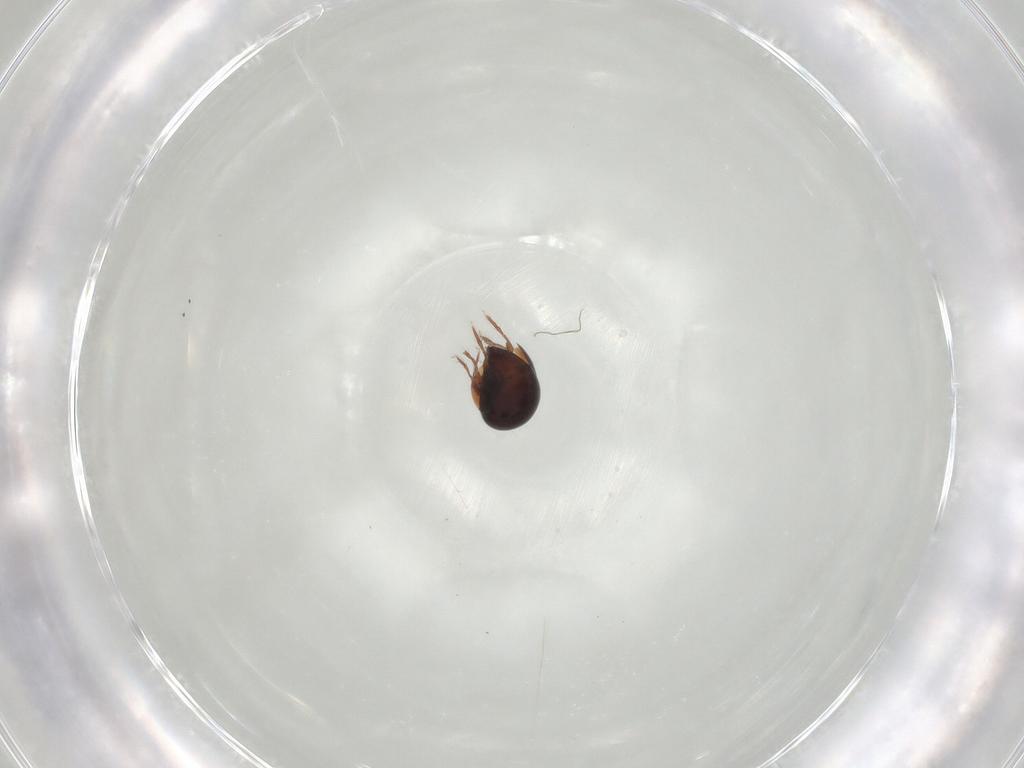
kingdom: Animalia
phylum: Arthropoda
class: Arachnida
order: Sarcoptiformes
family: Galumnidae
